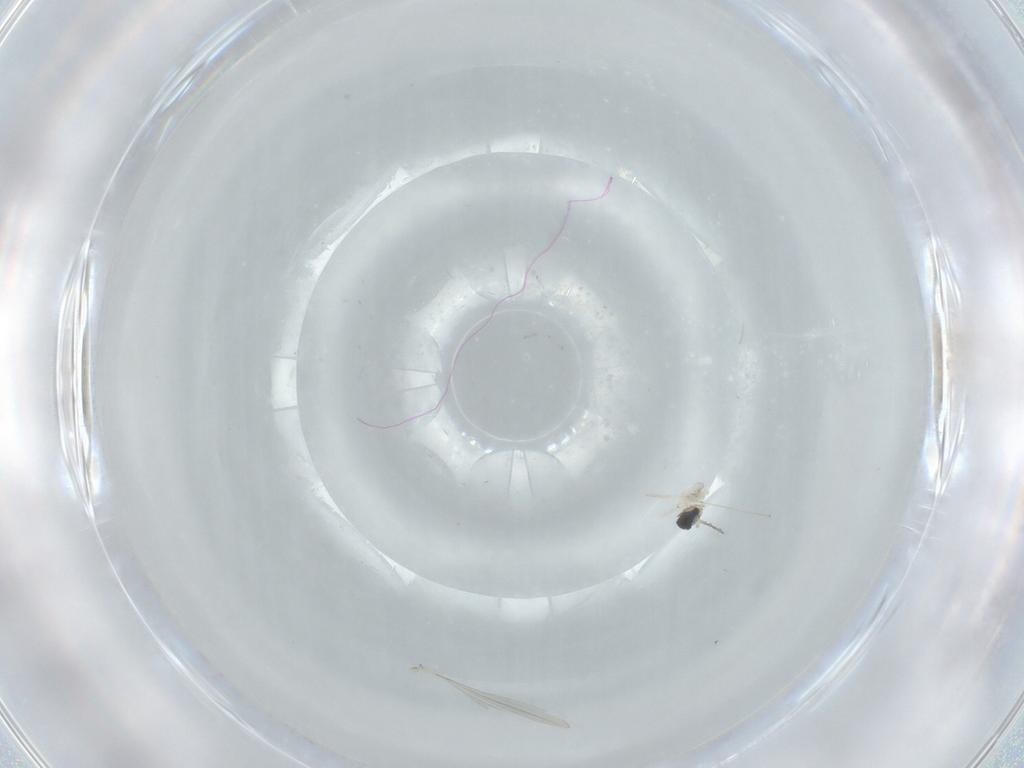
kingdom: Animalia
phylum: Arthropoda
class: Insecta
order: Diptera
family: Cecidomyiidae
